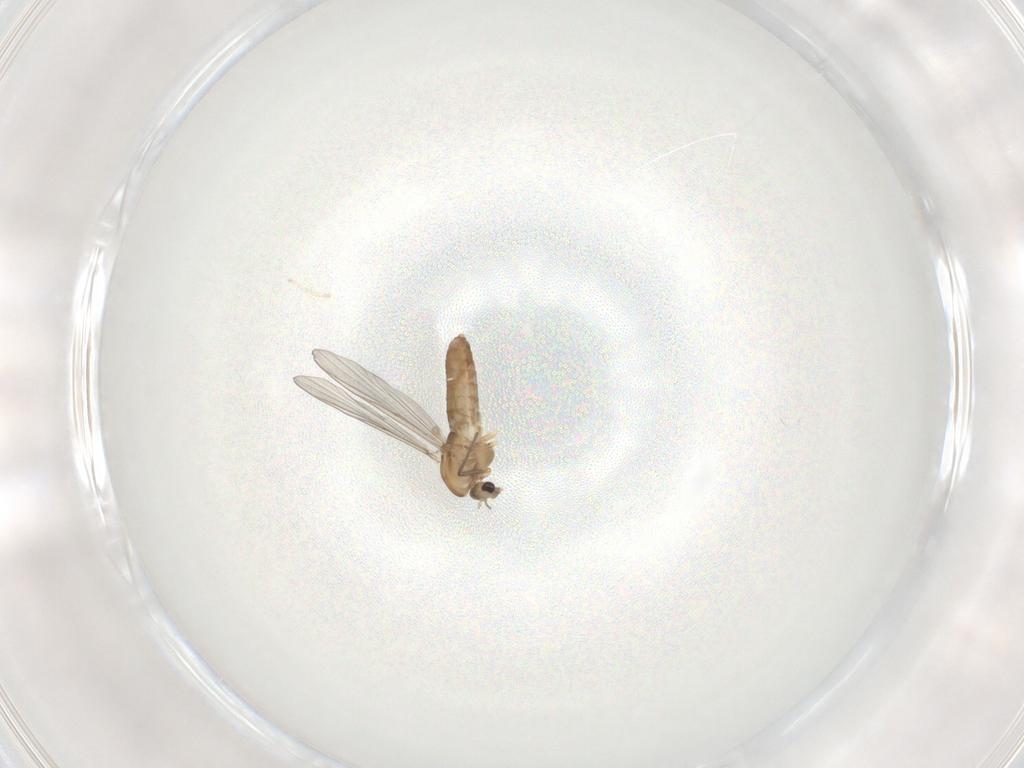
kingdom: Animalia
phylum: Arthropoda
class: Insecta
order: Diptera
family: Chironomidae
